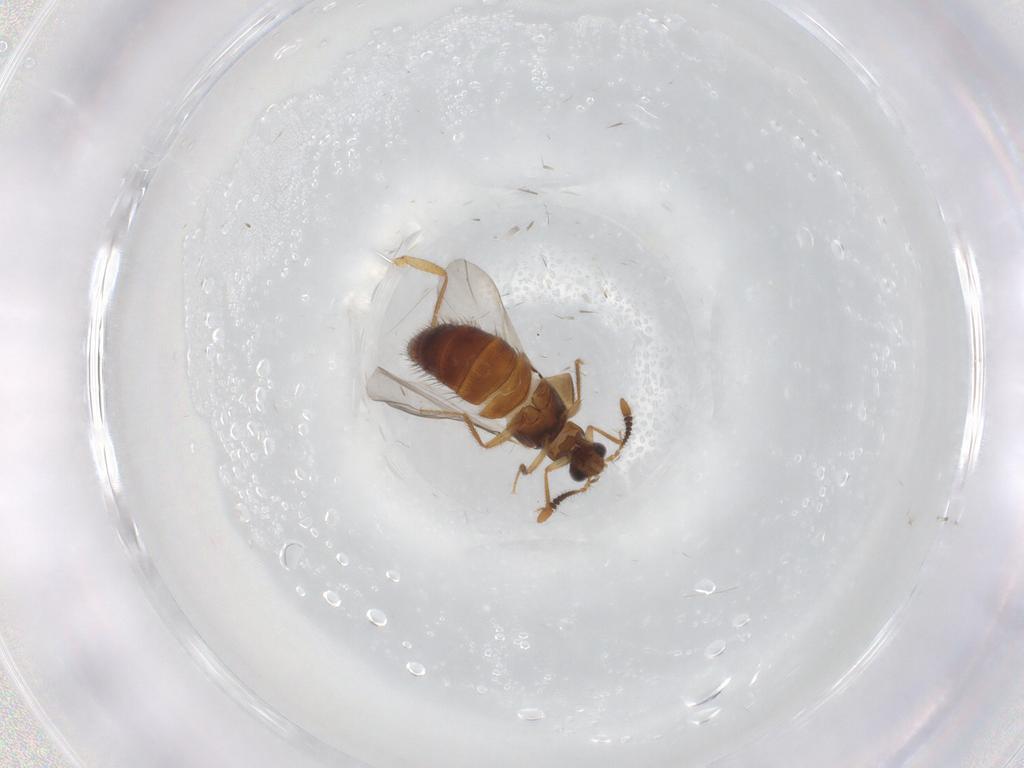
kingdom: Animalia
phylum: Arthropoda
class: Insecta
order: Coleoptera
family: Staphylinidae
